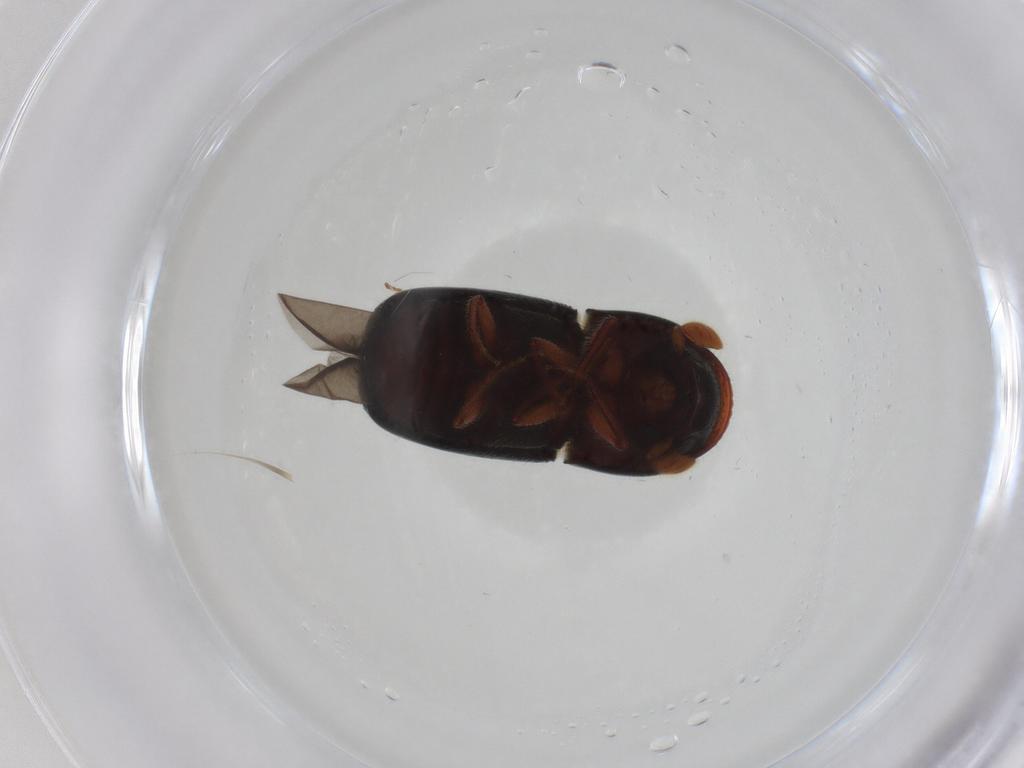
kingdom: Animalia
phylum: Arthropoda
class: Insecta
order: Coleoptera
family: Curculionidae
